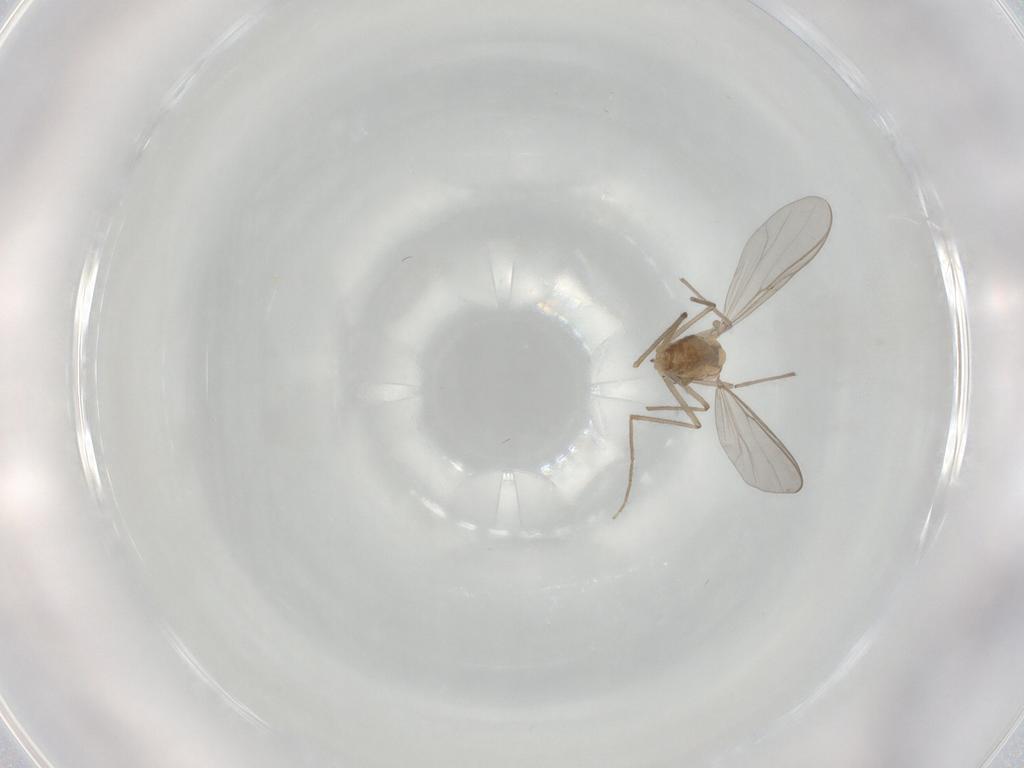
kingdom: Animalia
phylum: Arthropoda
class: Insecta
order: Diptera
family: Chironomidae
